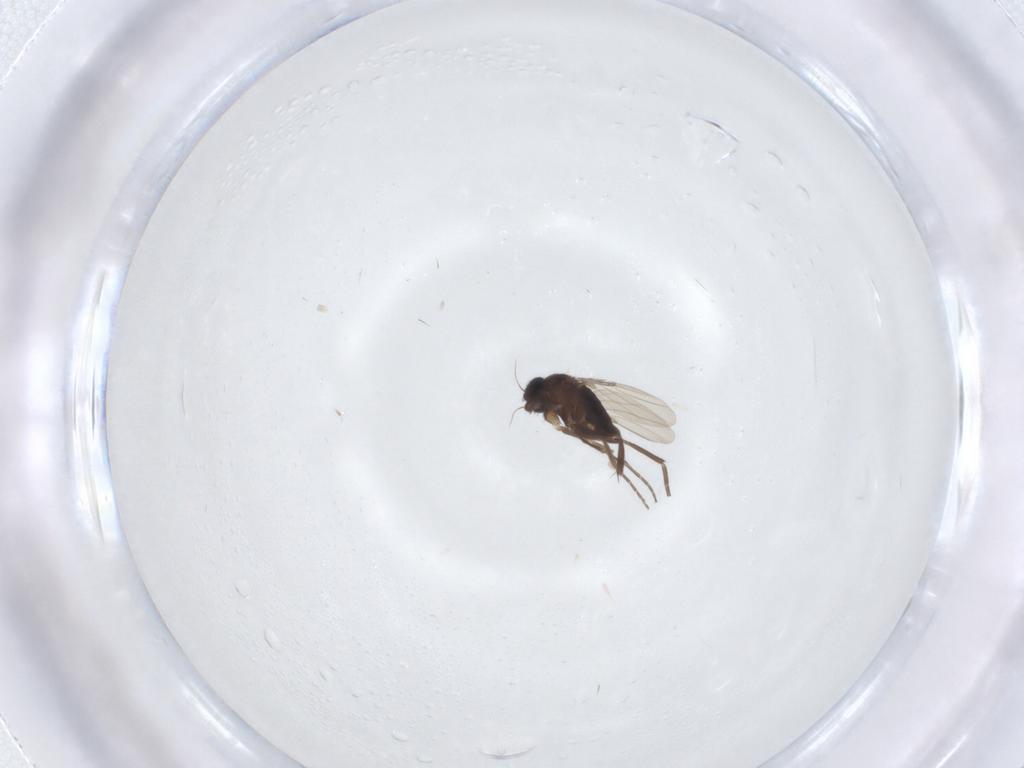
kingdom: Animalia
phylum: Arthropoda
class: Insecta
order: Diptera
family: Phoridae
